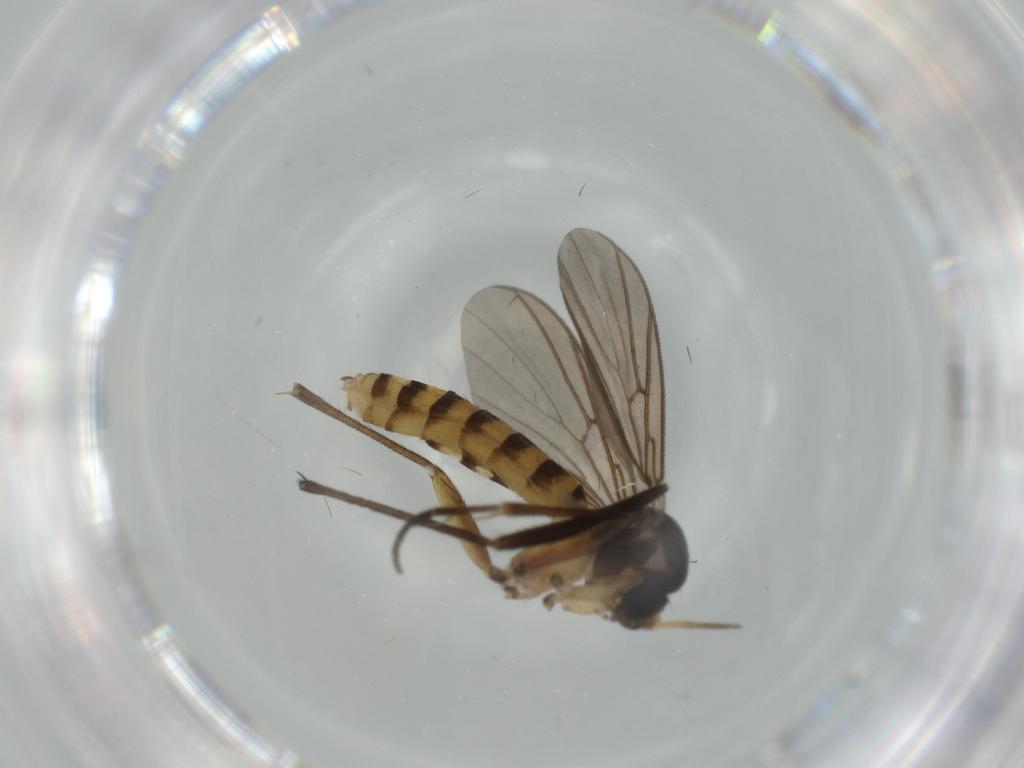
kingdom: Animalia
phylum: Arthropoda
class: Insecta
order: Diptera
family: Sciaridae
